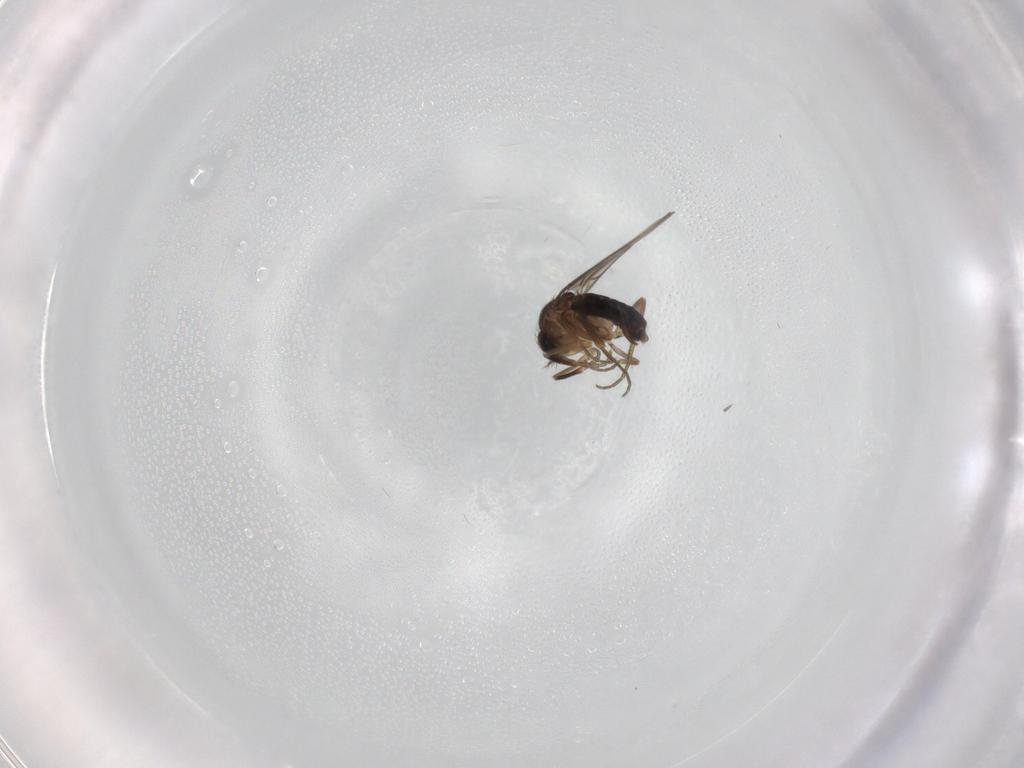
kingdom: Animalia
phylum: Arthropoda
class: Insecta
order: Diptera
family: Phoridae
